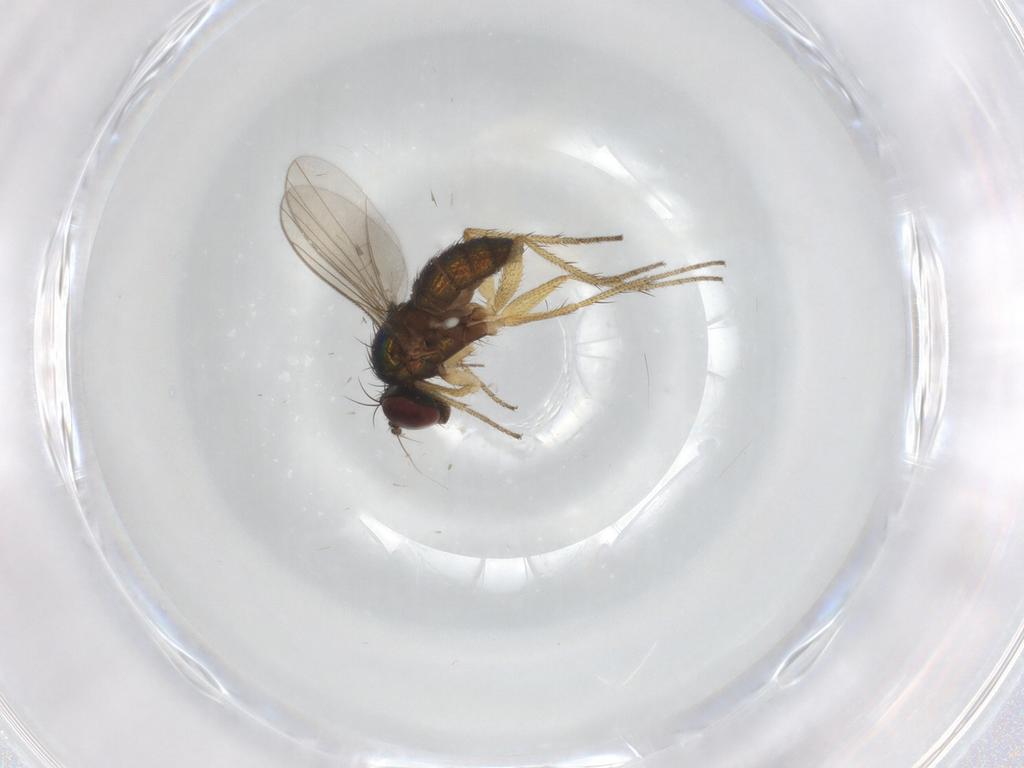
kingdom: Animalia
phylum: Arthropoda
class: Insecta
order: Diptera
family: Dolichopodidae
